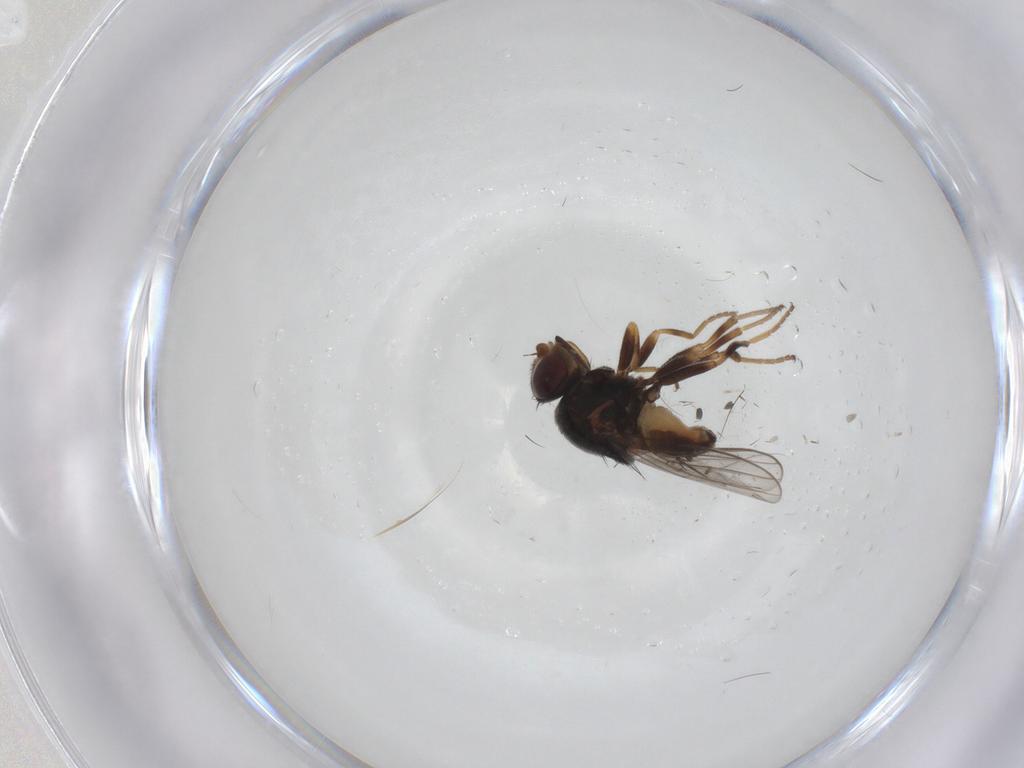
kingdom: Animalia
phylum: Arthropoda
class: Insecta
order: Diptera
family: Chloropidae
